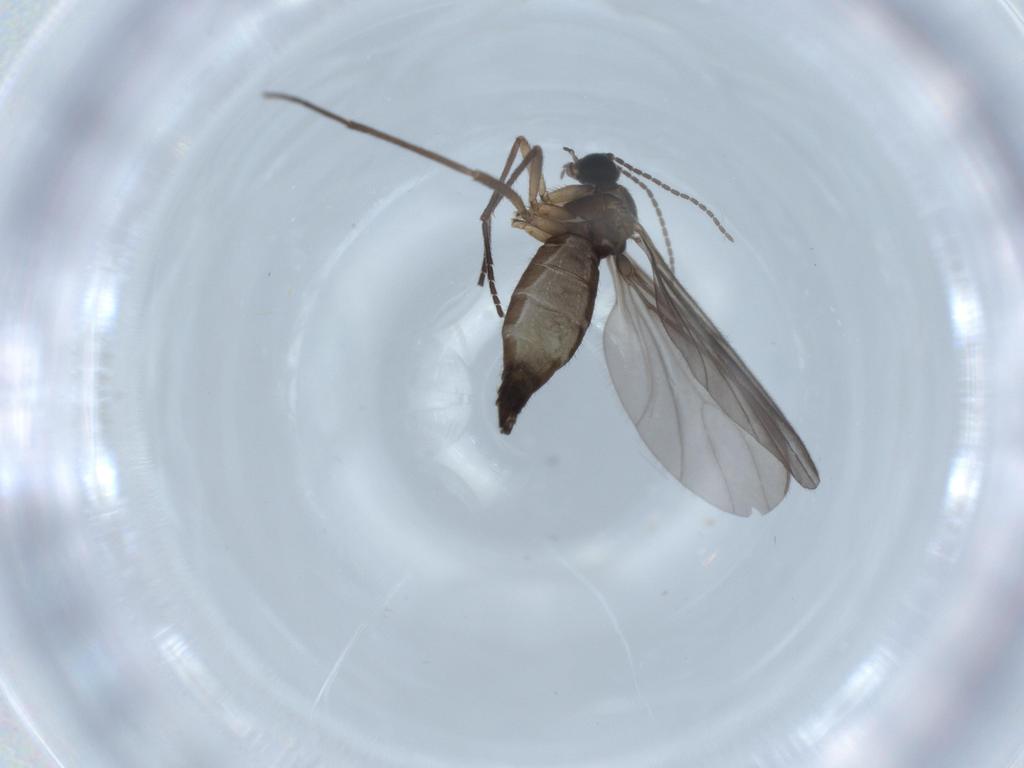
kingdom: Animalia
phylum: Arthropoda
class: Insecta
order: Diptera
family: Sciaridae
